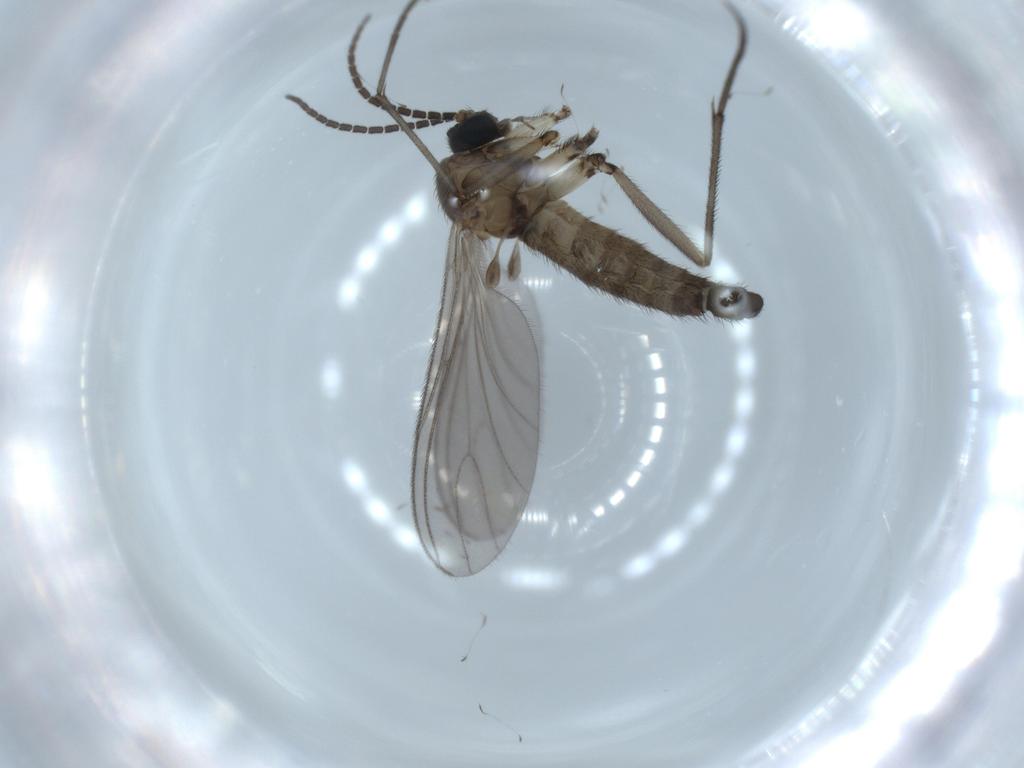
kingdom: Animalia
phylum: Arthropoda
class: Insecta
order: Diptera
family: Sciaridae
